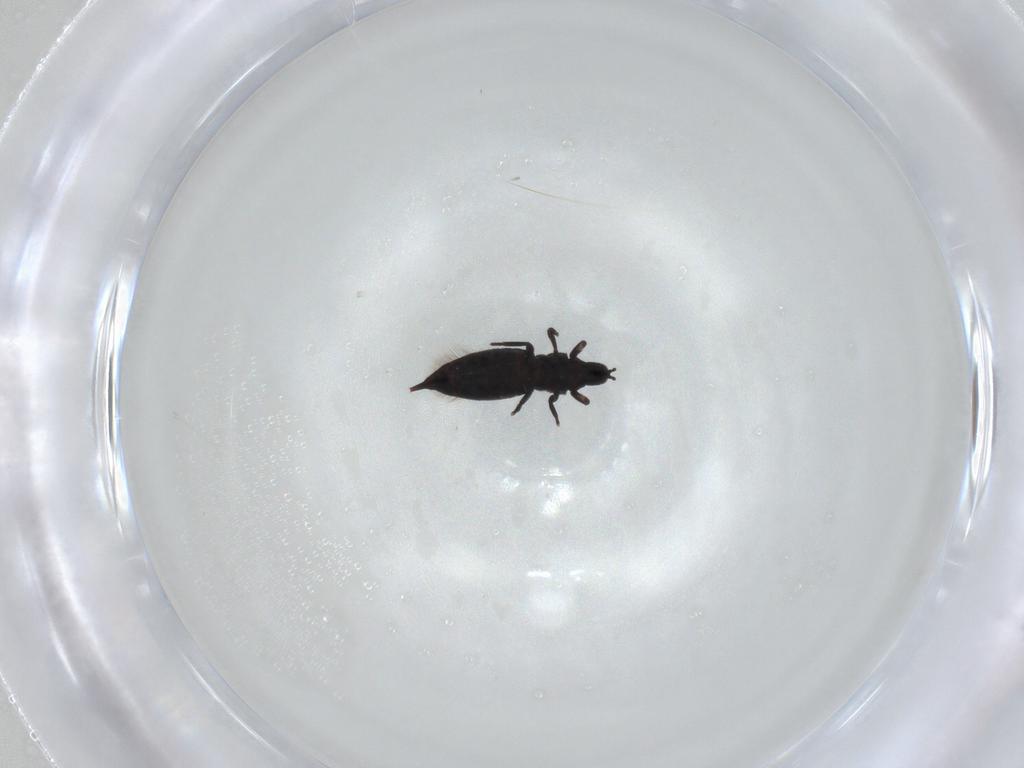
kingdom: Animalia
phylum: Arthropoda
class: Insecta
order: Thysanoptera
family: Phlaeothripidae
